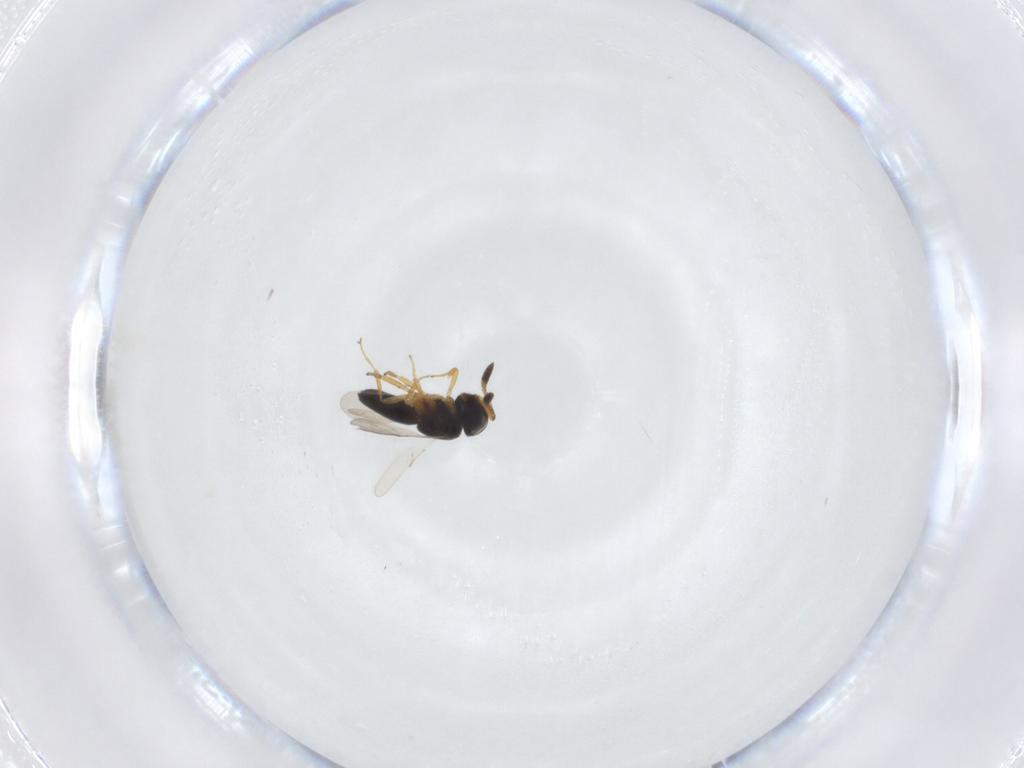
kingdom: Animalia
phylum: Arthropoda
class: Insecta
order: Hymenoptera
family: Scelionidae
